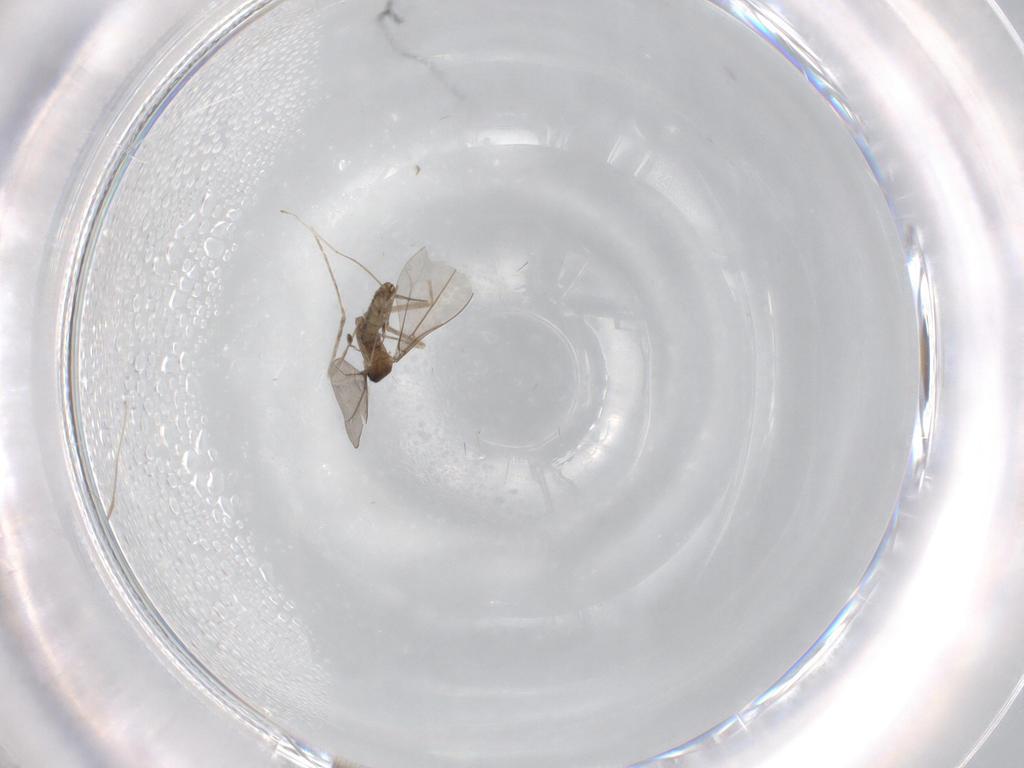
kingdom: Animalia
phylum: Arthropoda
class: Insecta
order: Diptera
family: Cecidomyiidae
